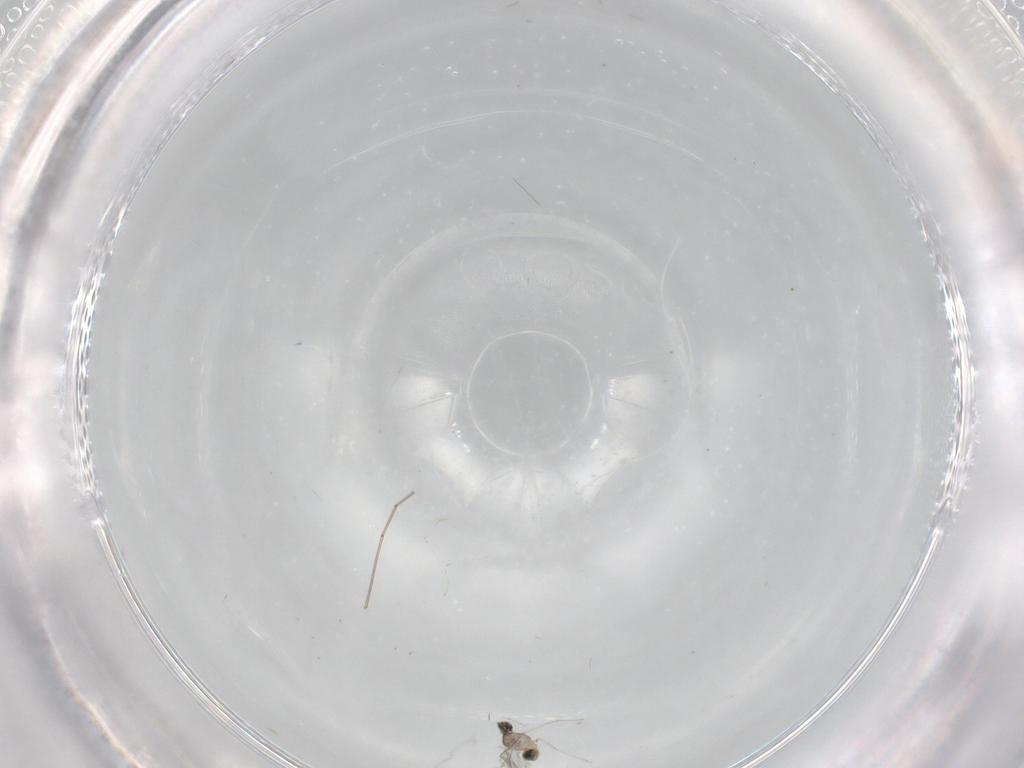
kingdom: Animalia
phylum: Arthropoda
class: Insecta
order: Diptera
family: Cecidomyiidae
